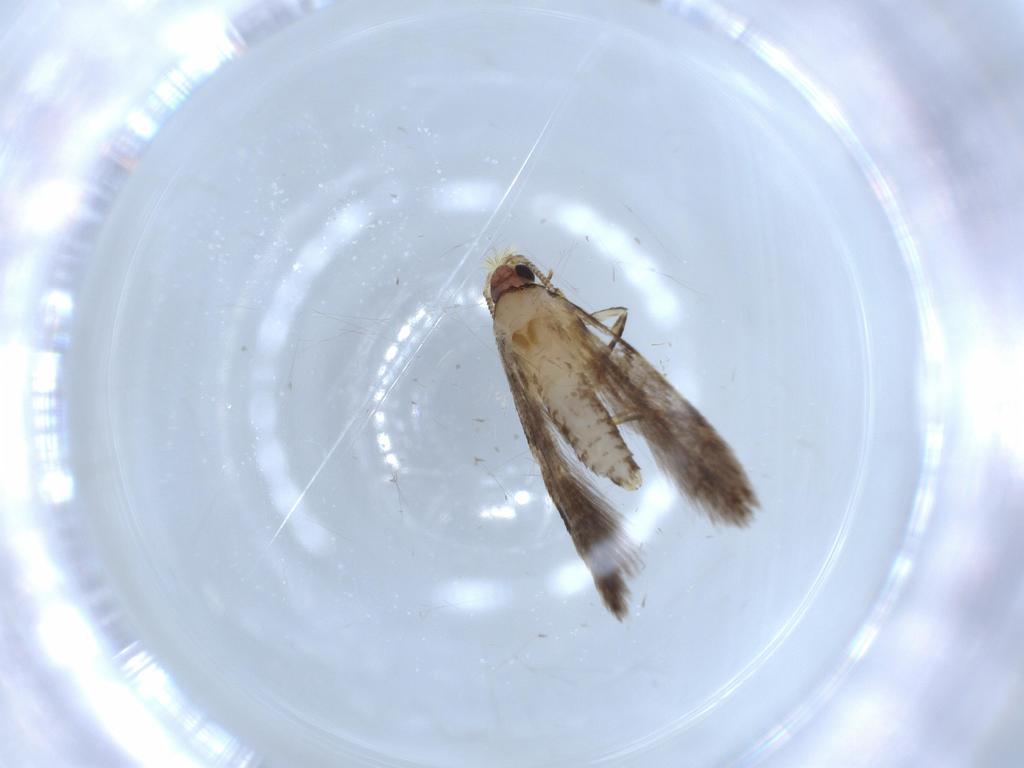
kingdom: Animalia
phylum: Arthropoda
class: Insecta
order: Lepidoptera
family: Tineidae
